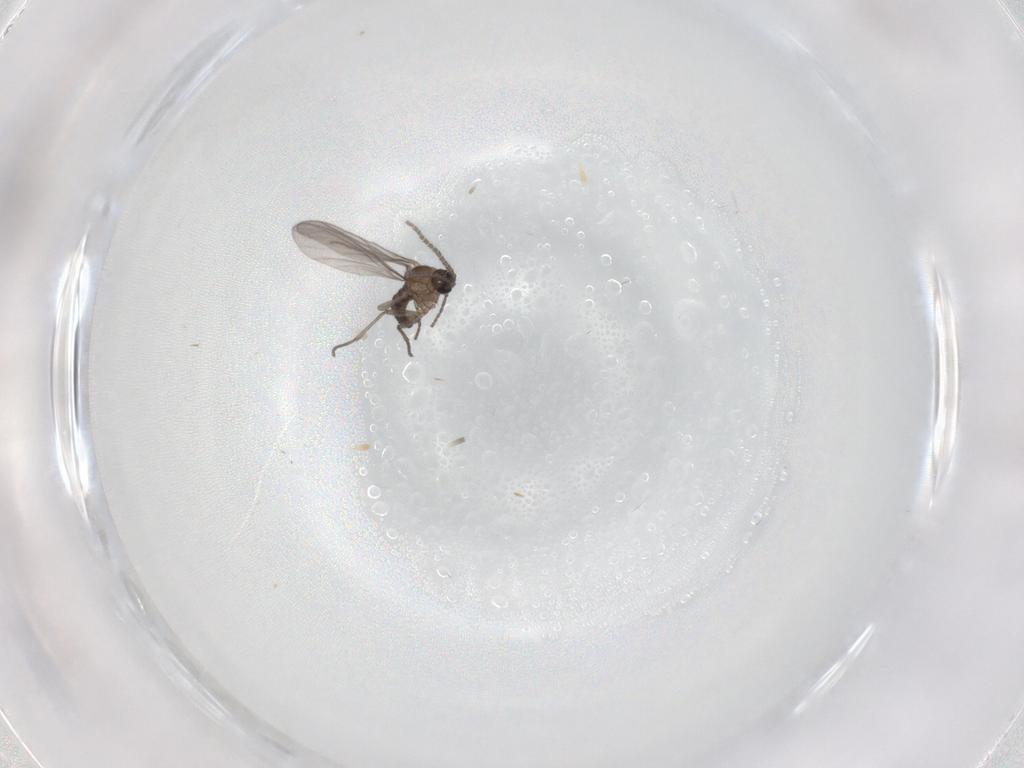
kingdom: Animalia
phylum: Arthropoda
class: Insecta
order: Diptera
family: Sciaridae
